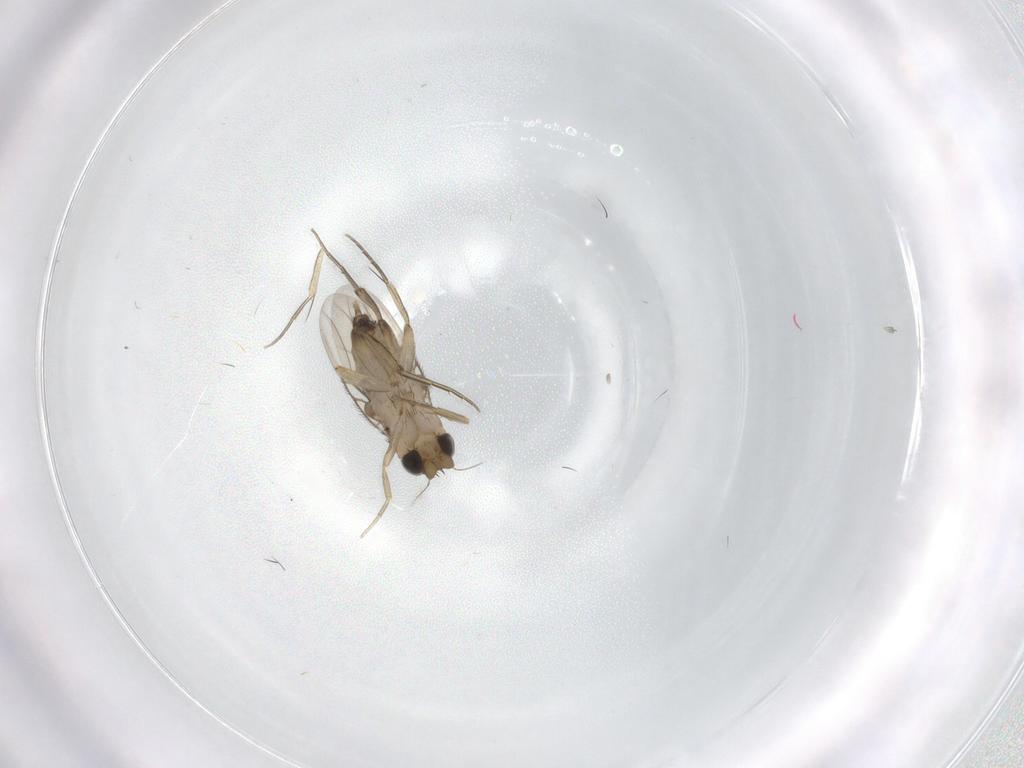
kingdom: Animalia
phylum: Arthropoda
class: Insecta
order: Diptera
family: Phoridae
